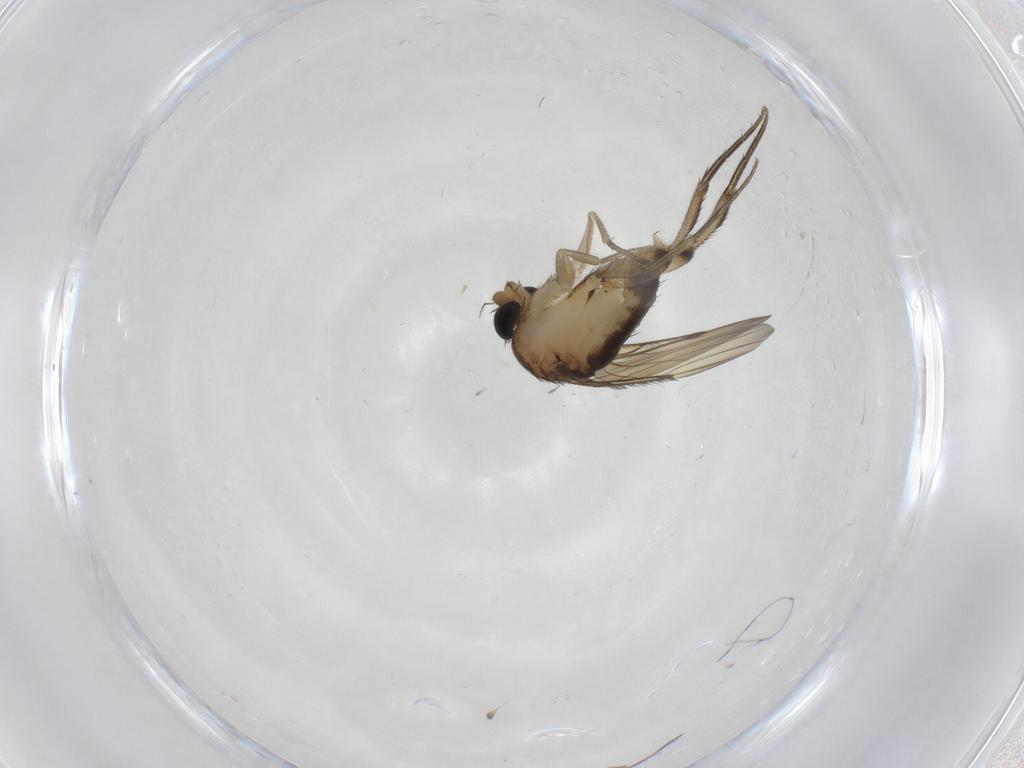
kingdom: Animalia
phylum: Arthropoda
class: Insecta
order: Diptera
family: Phoridae
